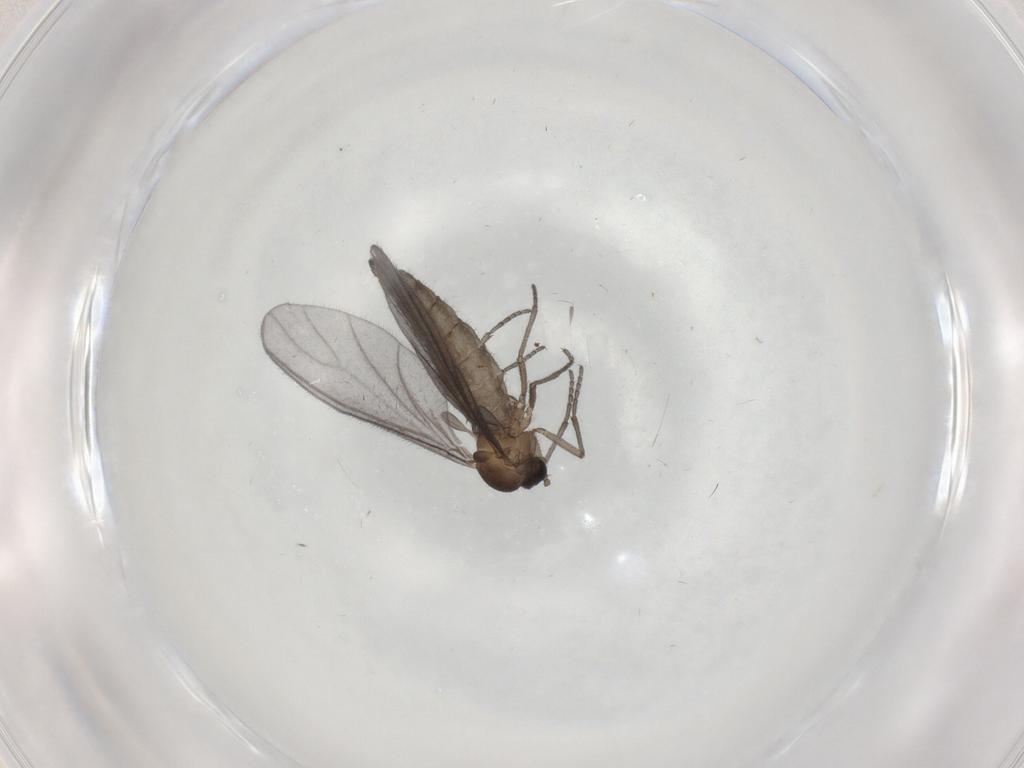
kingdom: Animalia
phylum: Arthropoda
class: Insecta
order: Diptera
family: Sciaridae
